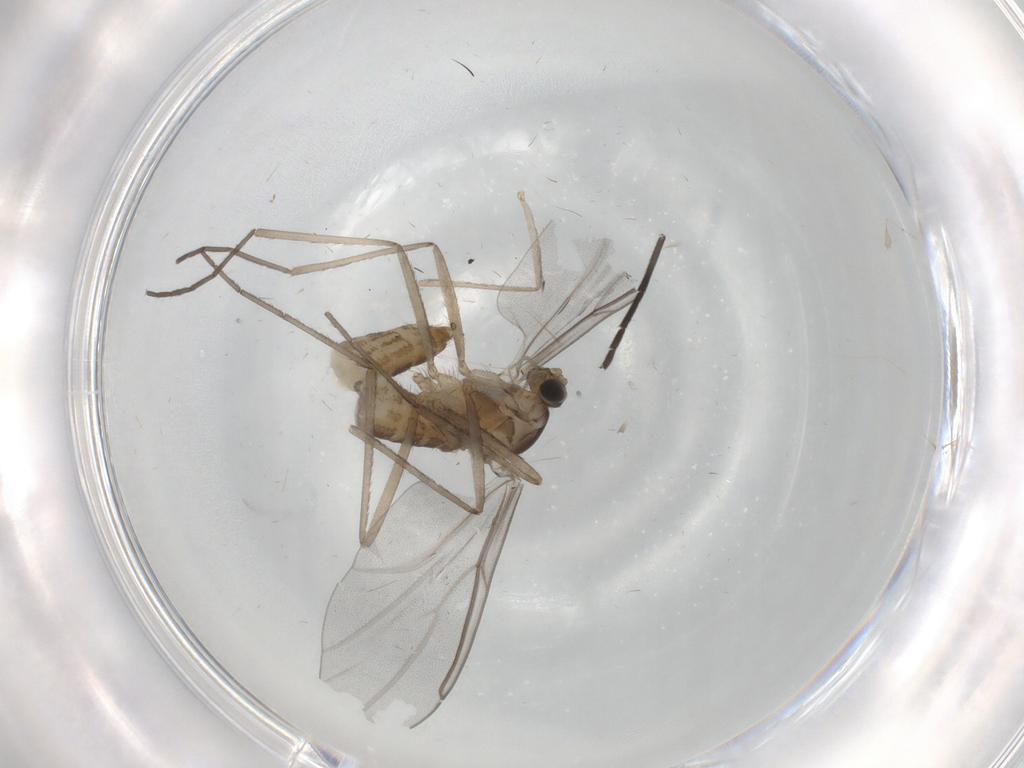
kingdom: Animalia
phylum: Arthropoda
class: Insecta
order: Diptera
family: Cecidomyiidae
